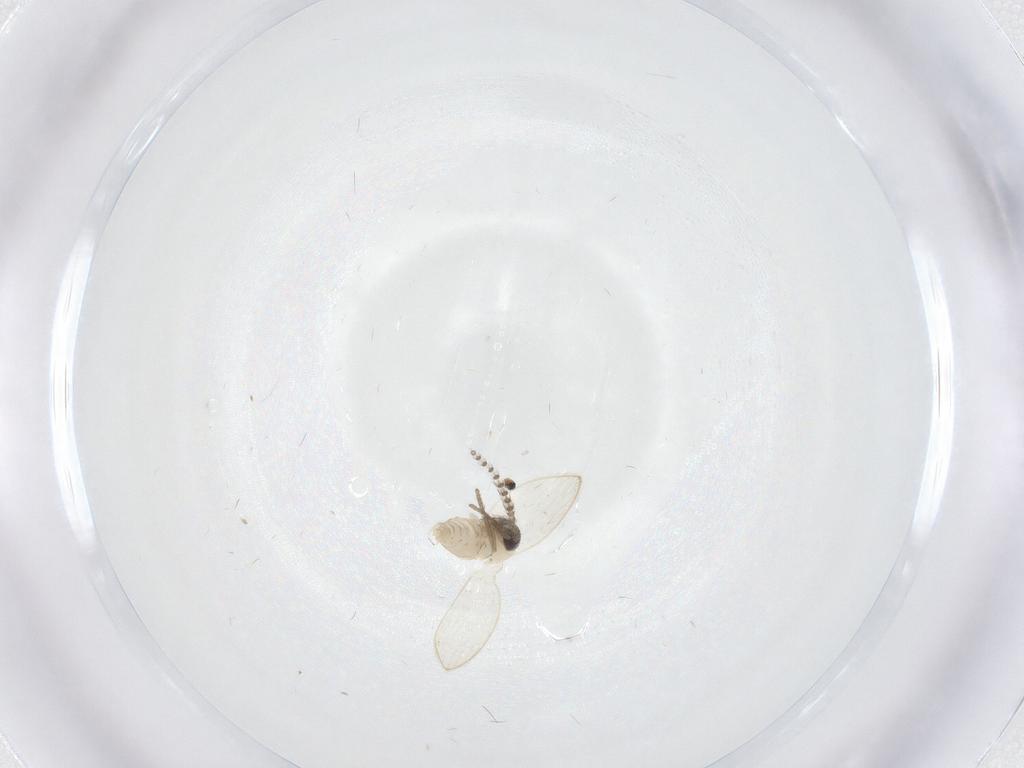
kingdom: Animalia
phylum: Arthropoda
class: Insecta
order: Diptera
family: Psychodidae
